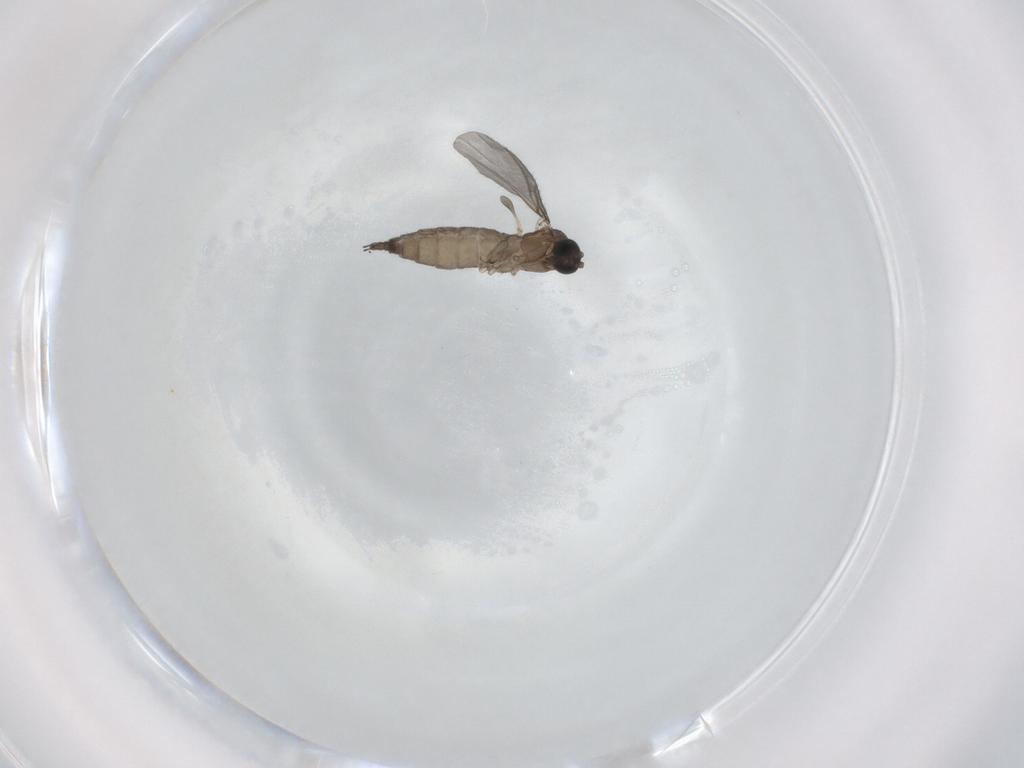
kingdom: Animalia
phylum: Arthropoda
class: Insecta
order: Diptera
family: Sciaridae
